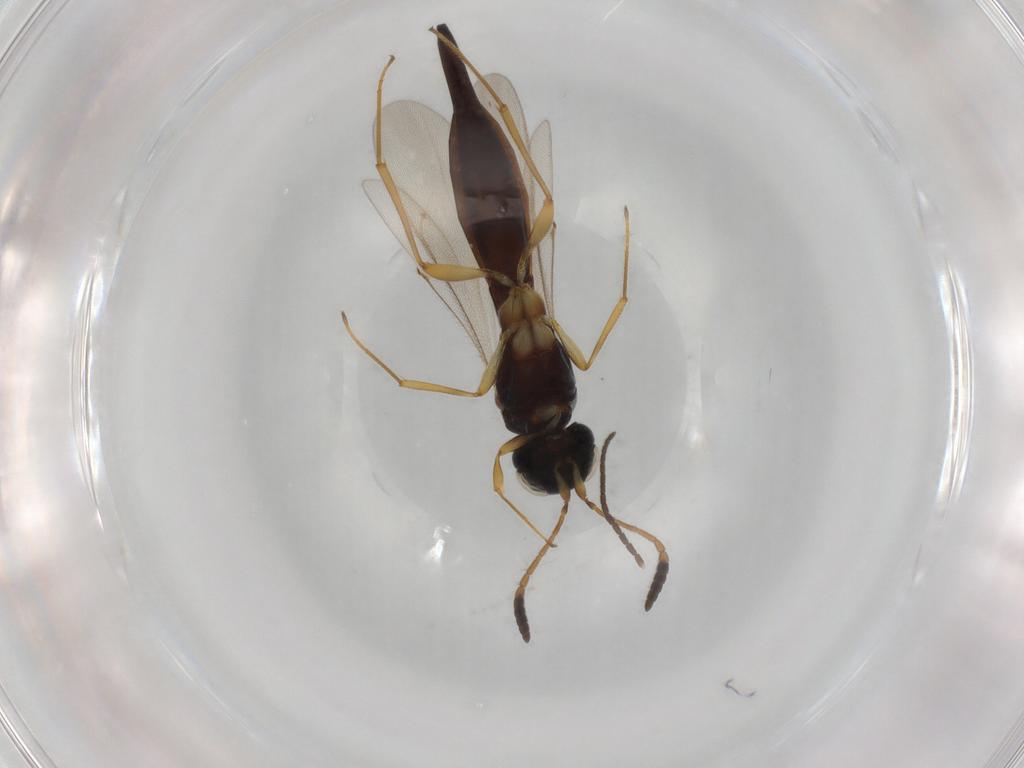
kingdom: Animalia
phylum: Arthropoda
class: Insecta
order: Hymenoptera
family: Scelionidae
